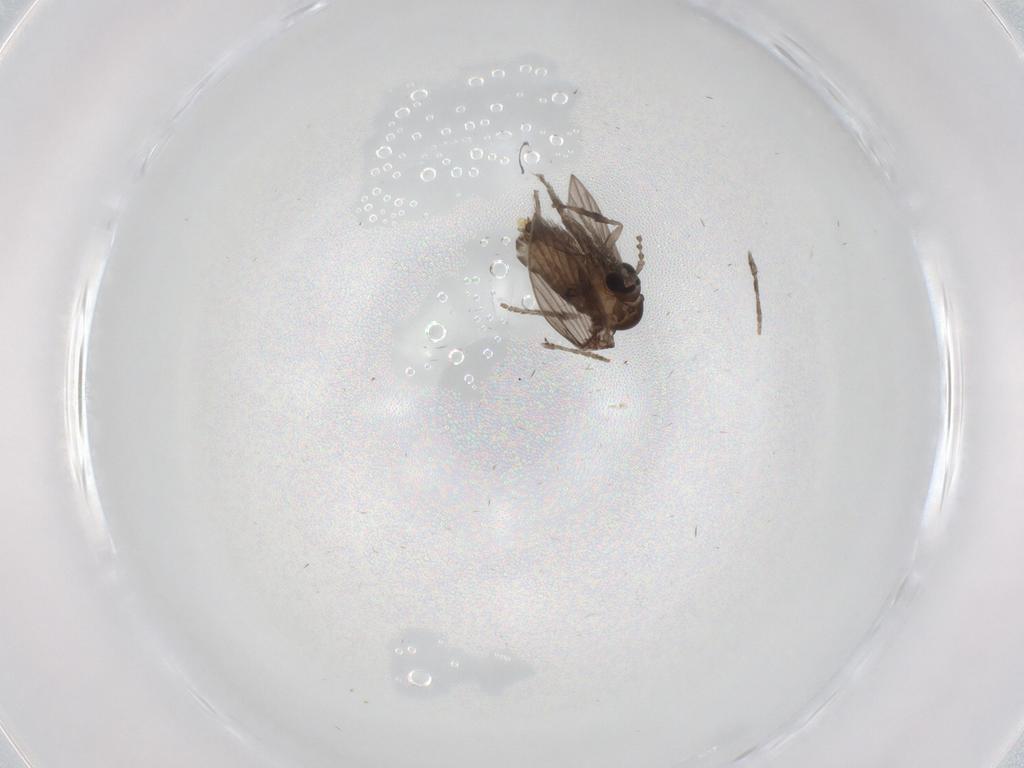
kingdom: Animalia
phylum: Arthropoda
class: Insecta
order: Diptera
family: Psychodidae
